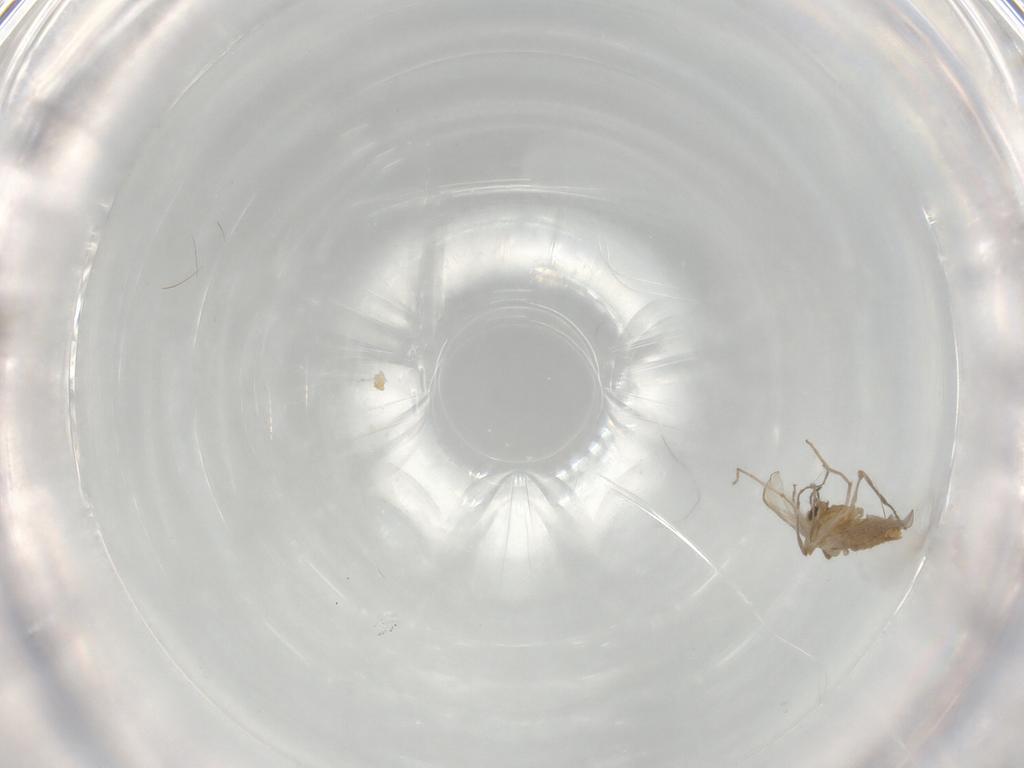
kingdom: Animalia
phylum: Arthropoda
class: Insecta
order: Diptera
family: Chironomidae
